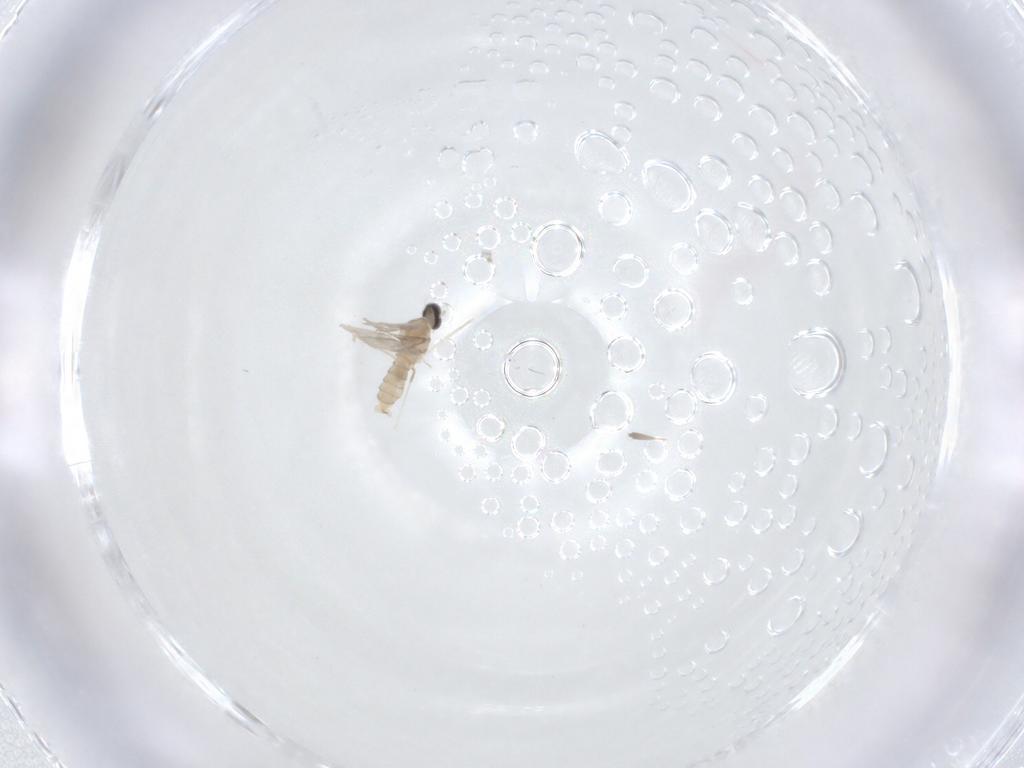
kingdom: Animalia
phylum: Arthropoda
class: Insecta
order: Diptera
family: Cecidomyiidae
